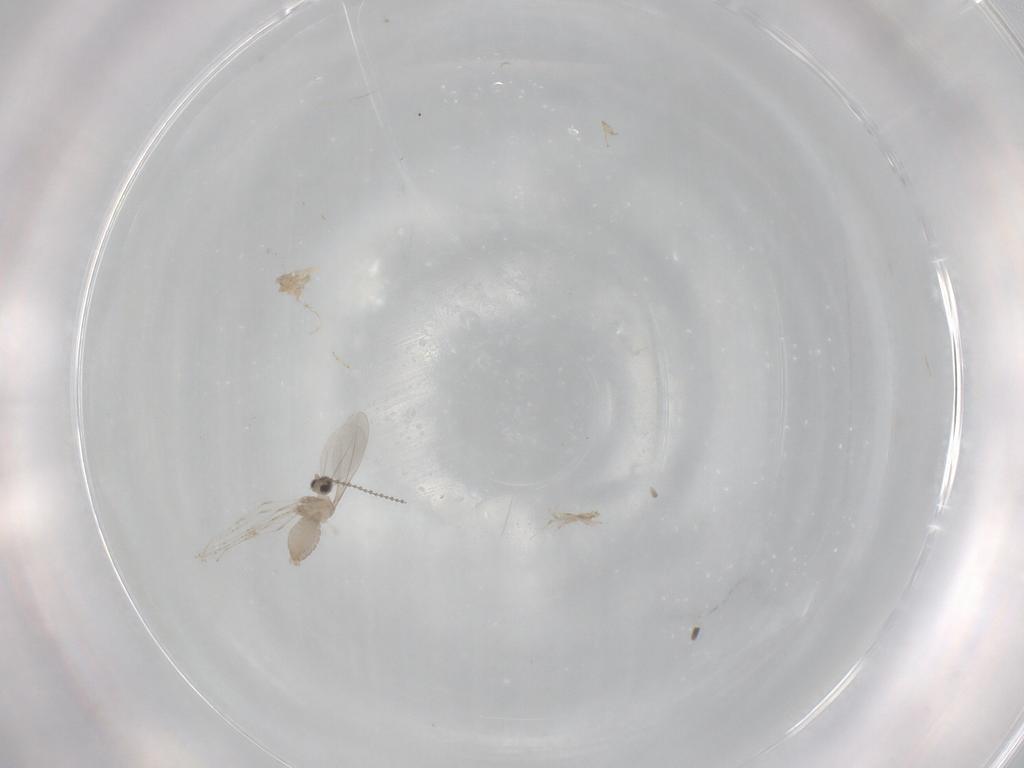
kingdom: Animalia
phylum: Arthropoda
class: Insecta
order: Diptera
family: Cecidomyiidae
